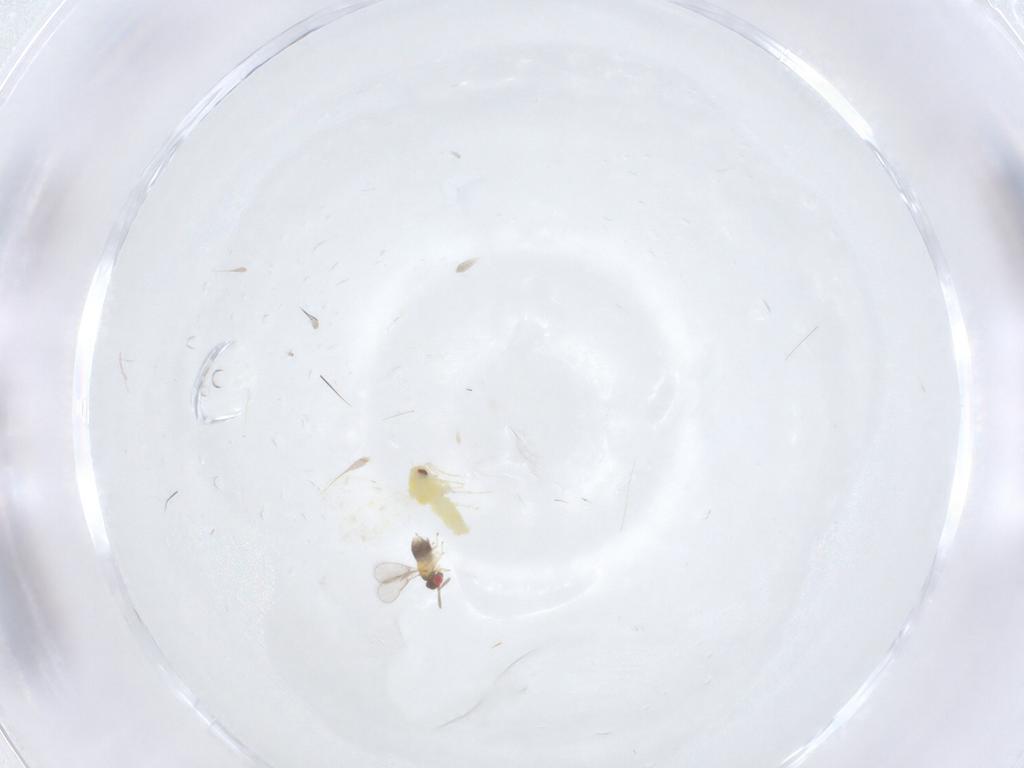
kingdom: Animalia
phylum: Arthropoda
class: Insecta
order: Hymenoptera
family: Aphelinidae
